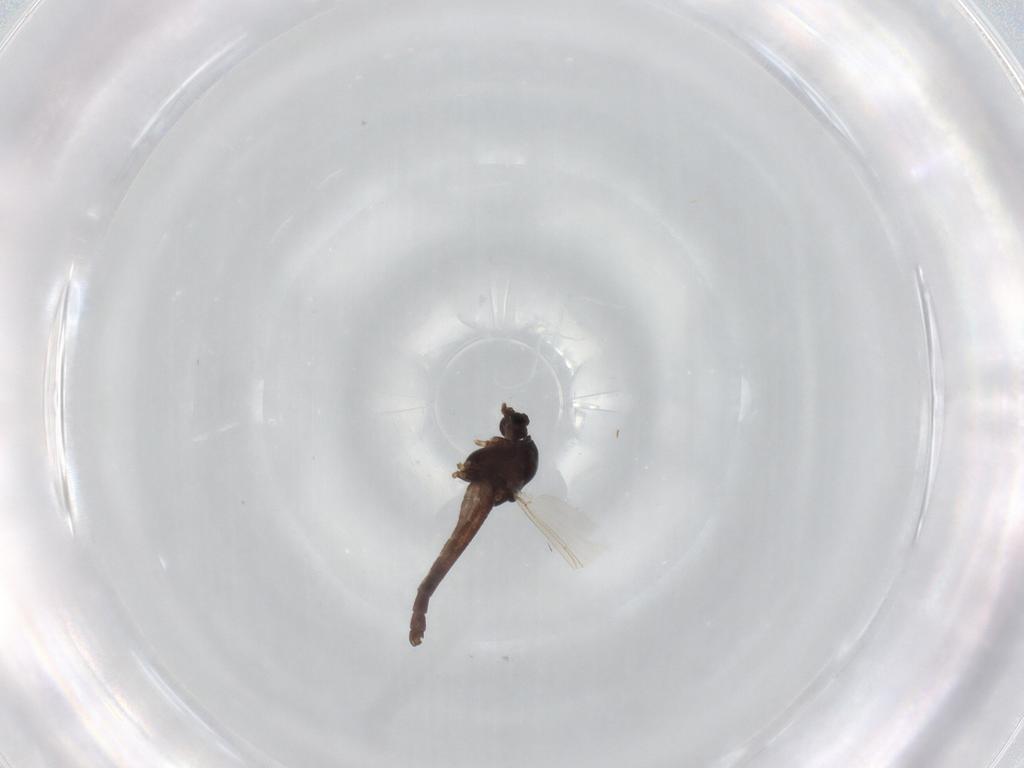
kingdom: Animalia
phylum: Arthropoda
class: Insecta
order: Diptera
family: Chironomidae
